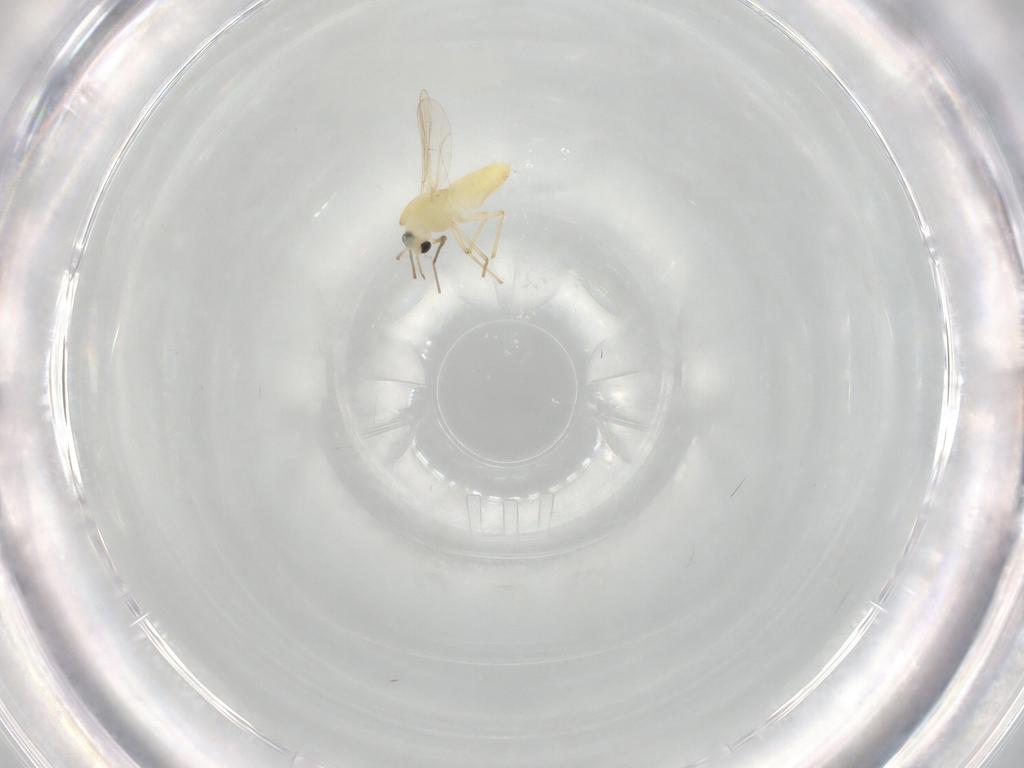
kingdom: Animalia
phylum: Arthropoda
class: Insecta
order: Diptera
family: Chironomidae
